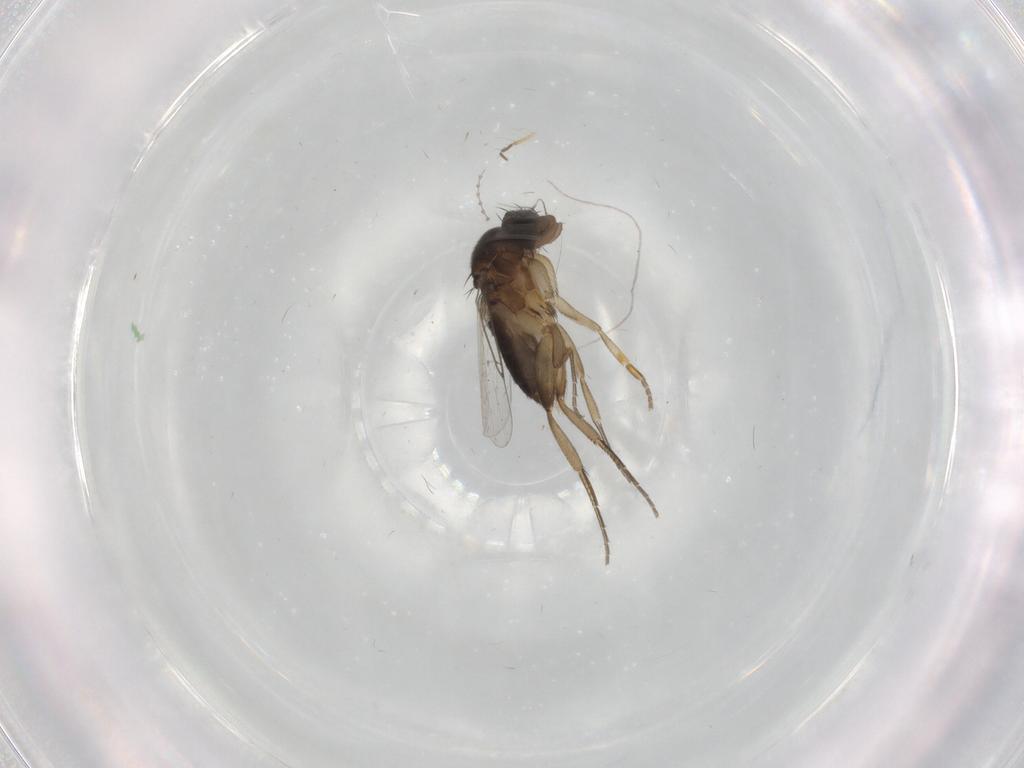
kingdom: Animalia
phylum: Arthropoda
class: Insecta
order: Diptera
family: Phoridae
